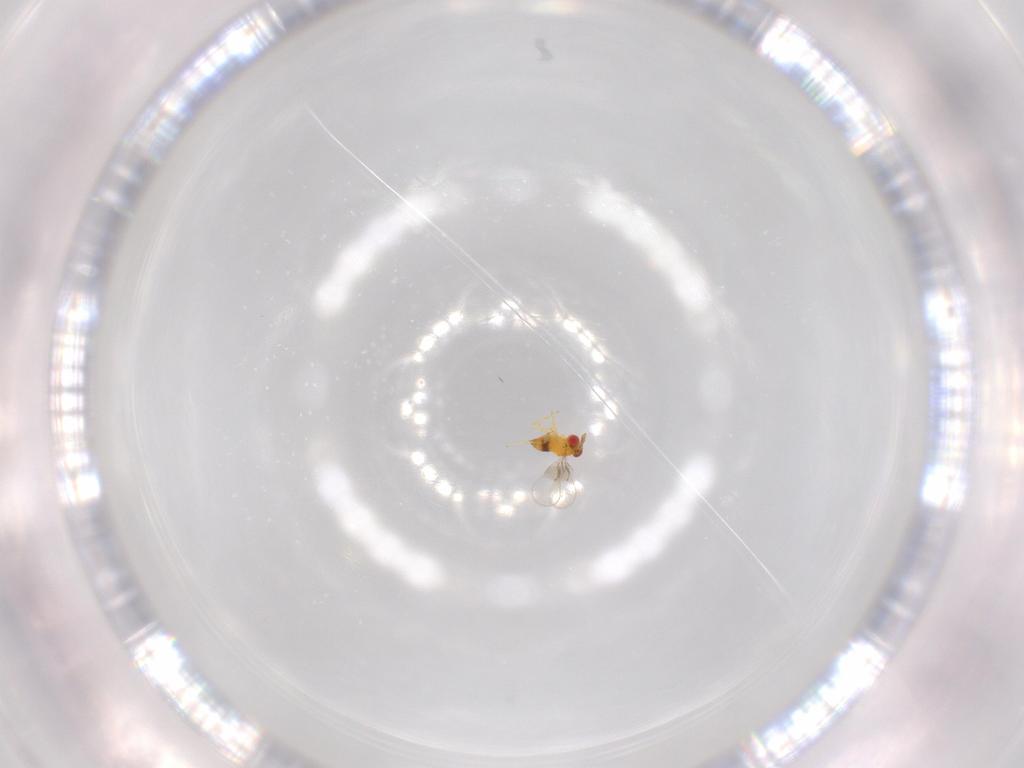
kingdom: Animalia
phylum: Arthropoda
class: Insecta
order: Hymenoptera
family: Trichogrammatidae
